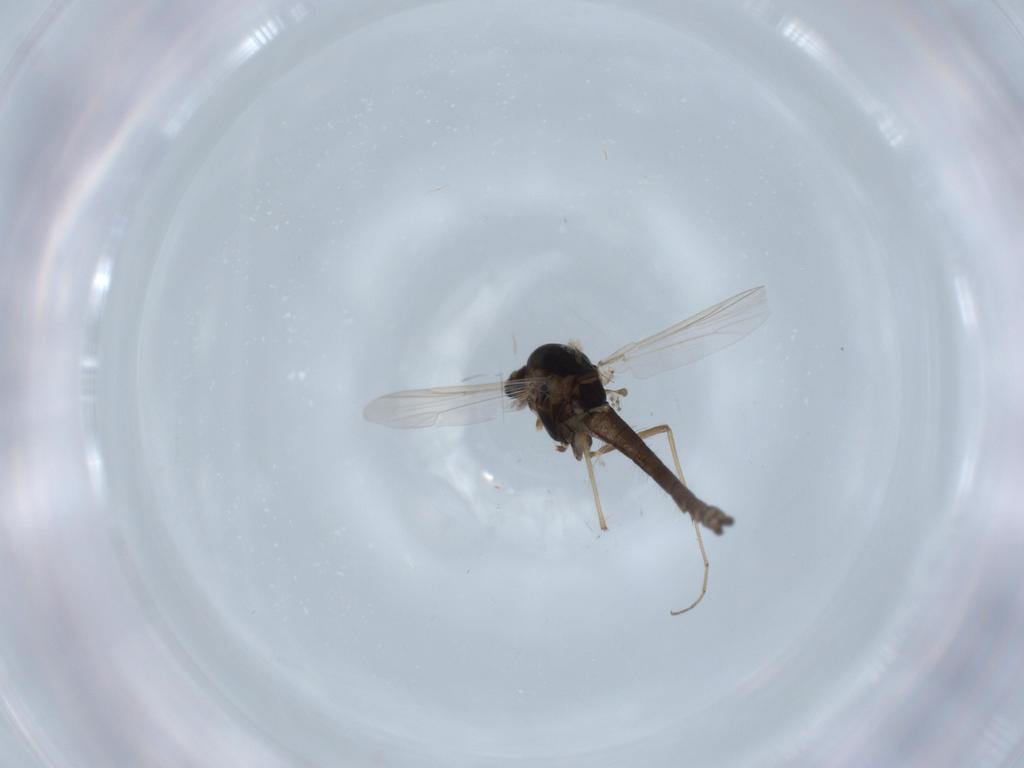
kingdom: Animalia
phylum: Arthropoda
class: Insecta
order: Diptera
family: Chironomidae
